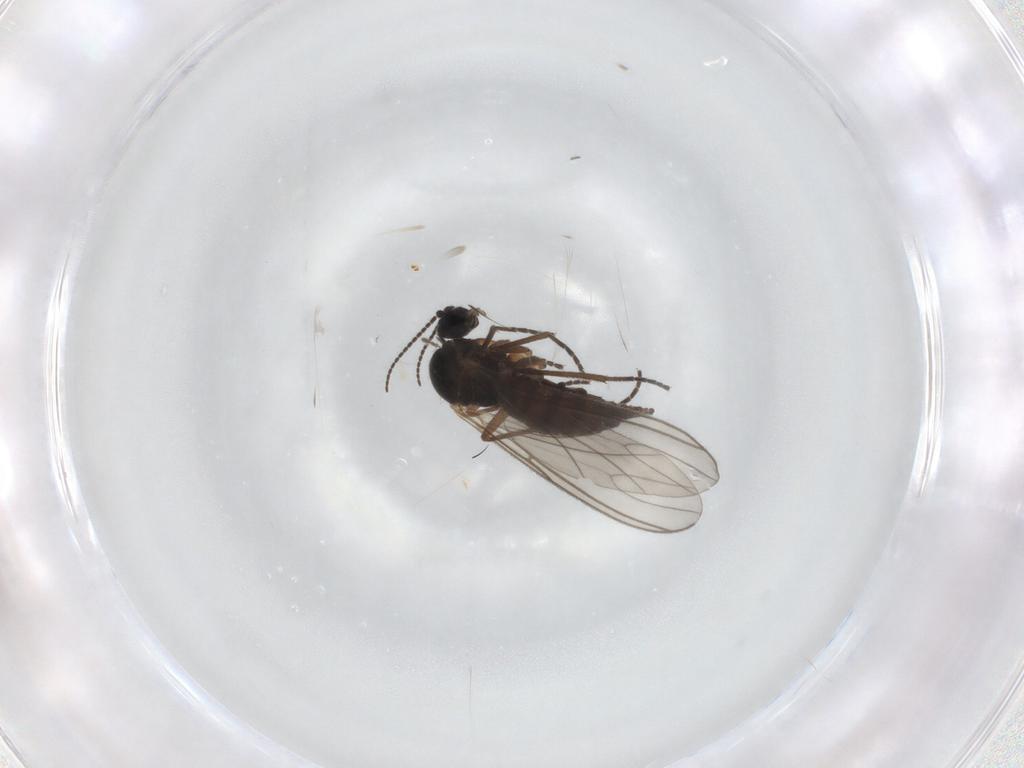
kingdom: Animalia
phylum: Arthropoda
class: Insecta
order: Diptera
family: Sciaridae
